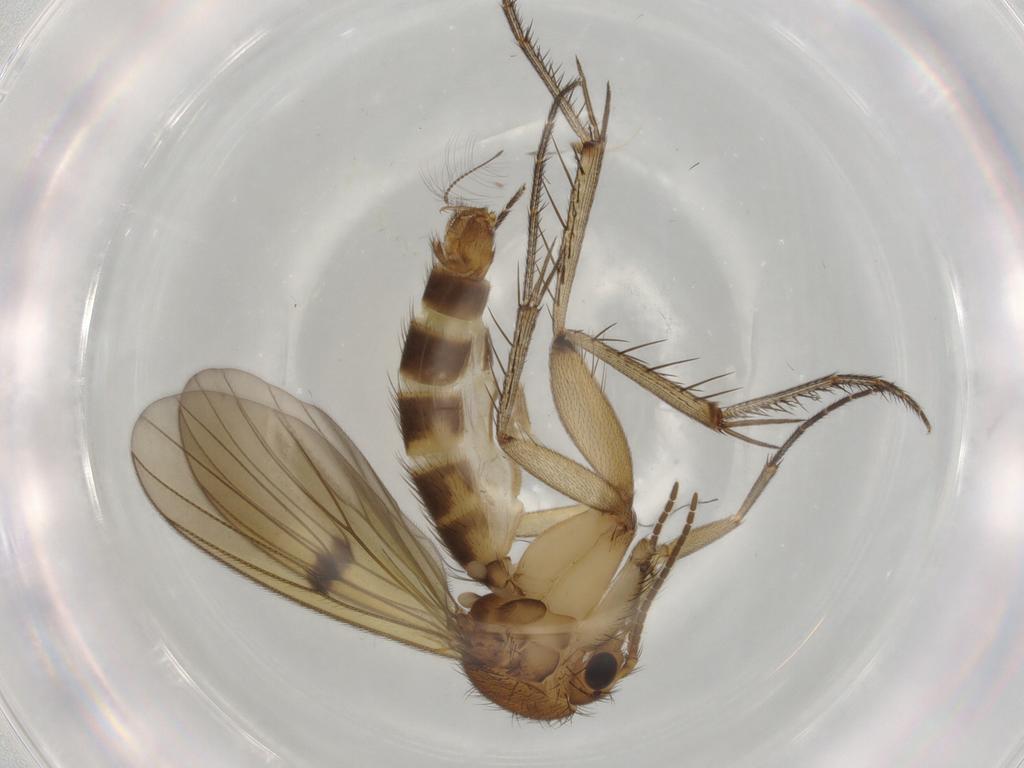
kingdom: Animalia
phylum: Arthropoda
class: Insecta
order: Diptera
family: Mycetophilidae
